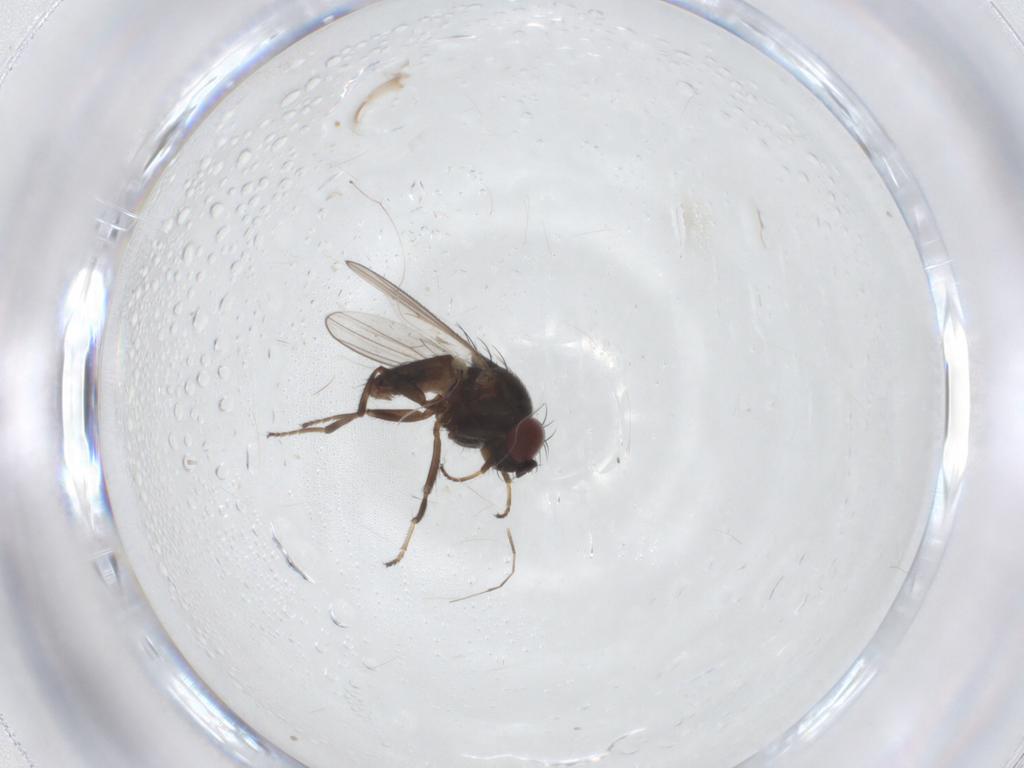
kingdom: Animalia
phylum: Arthropoda
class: Insecta
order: Diptera
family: Ephydridae
